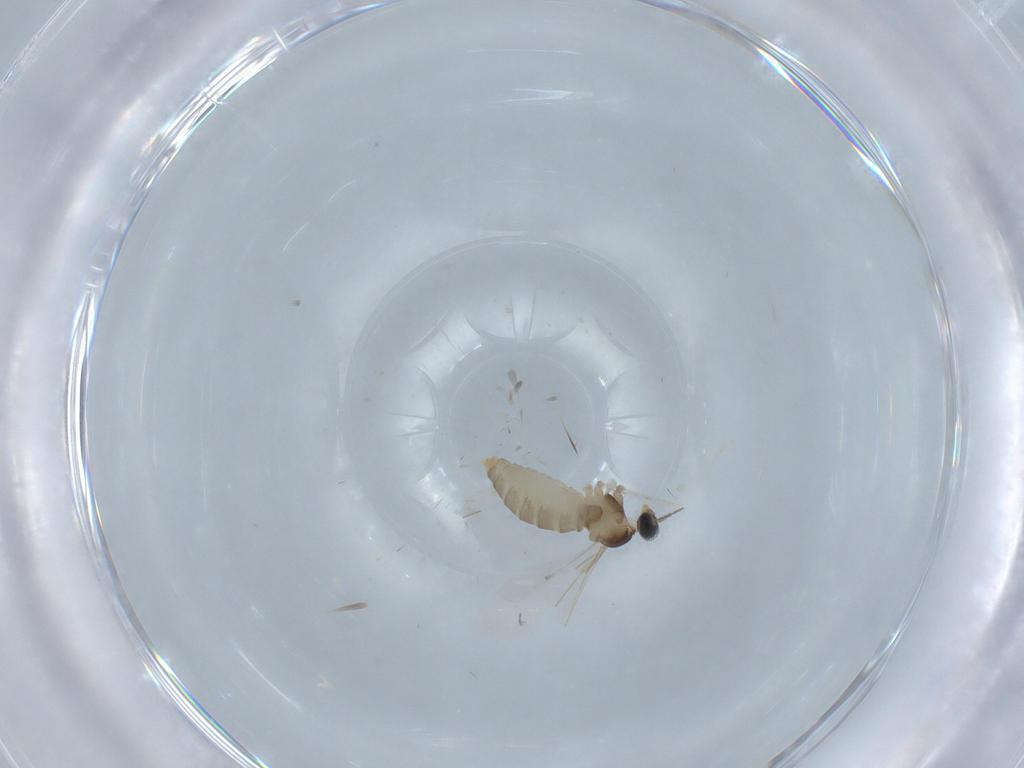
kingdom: Animalia
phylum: Arthropoda
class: Insecta
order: Diptera
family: Cecidomyiidae
